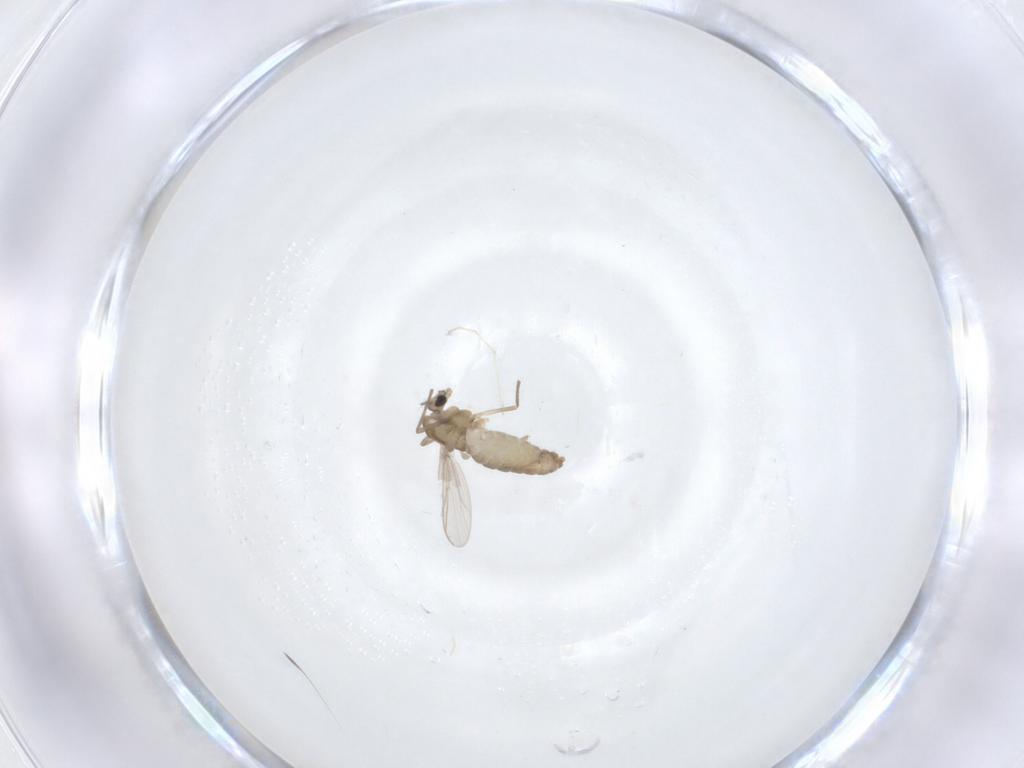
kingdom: Animalia
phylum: Arthropoda
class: Insecta
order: Diptera
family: Chironomidae
